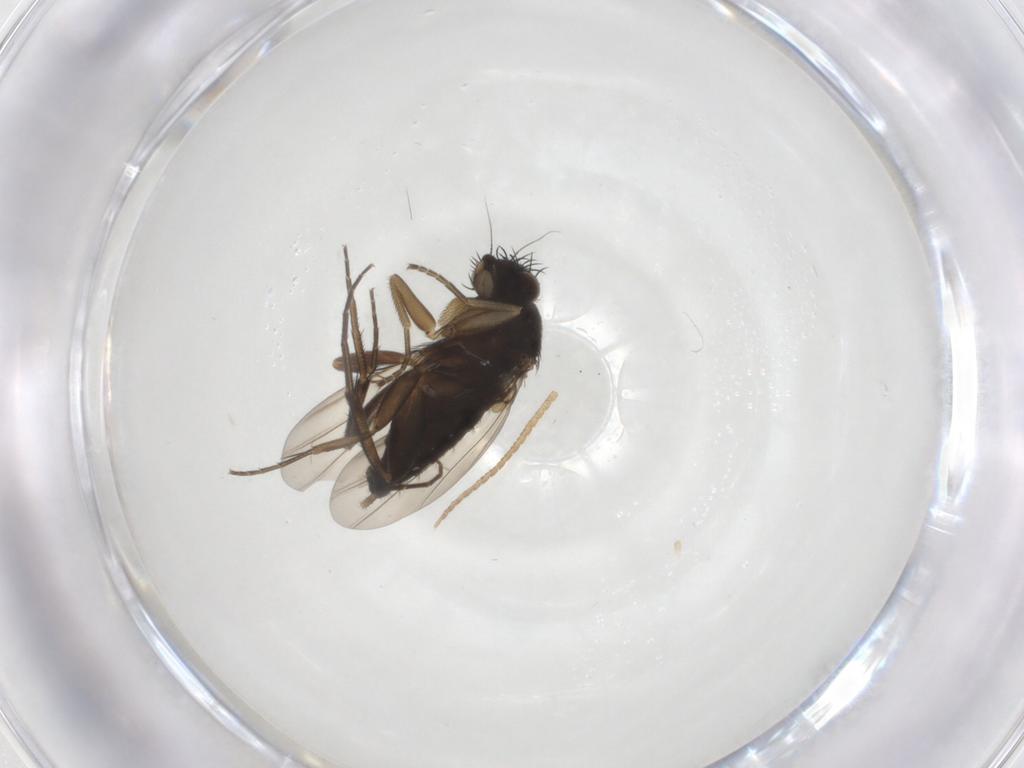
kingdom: Animalia
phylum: Arthropoda
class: Insecta
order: Diptera
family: Phoridae
